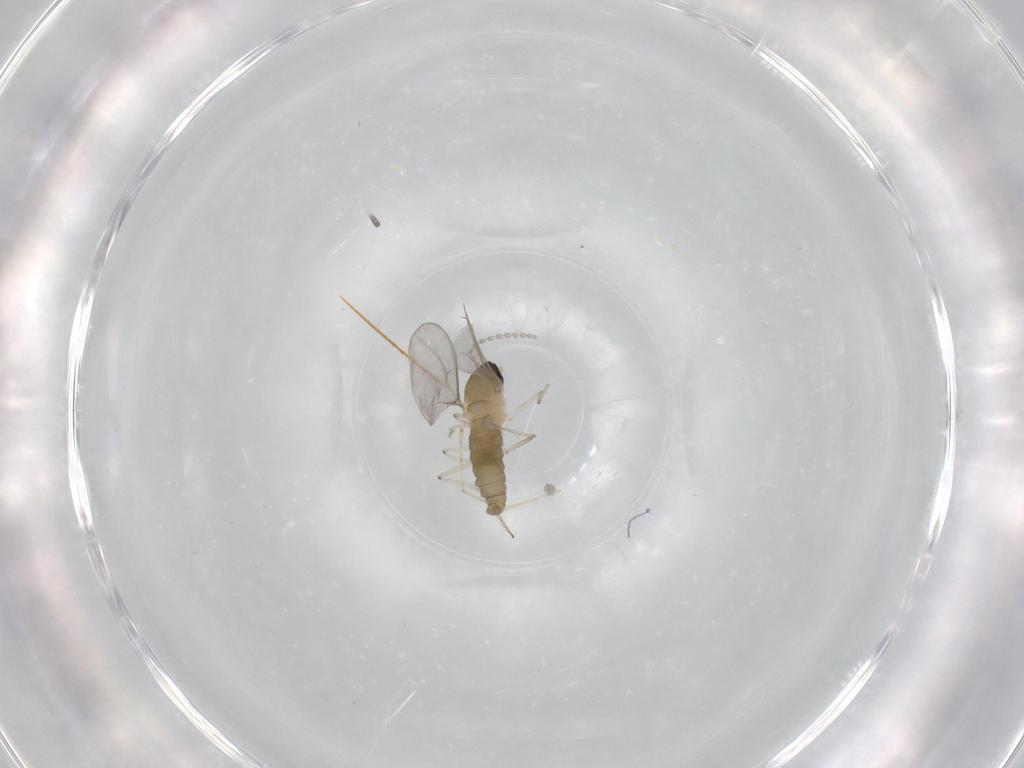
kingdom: Animalia
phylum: Arthropoda
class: Insecta
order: Diptera
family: Cecidomyiidae
